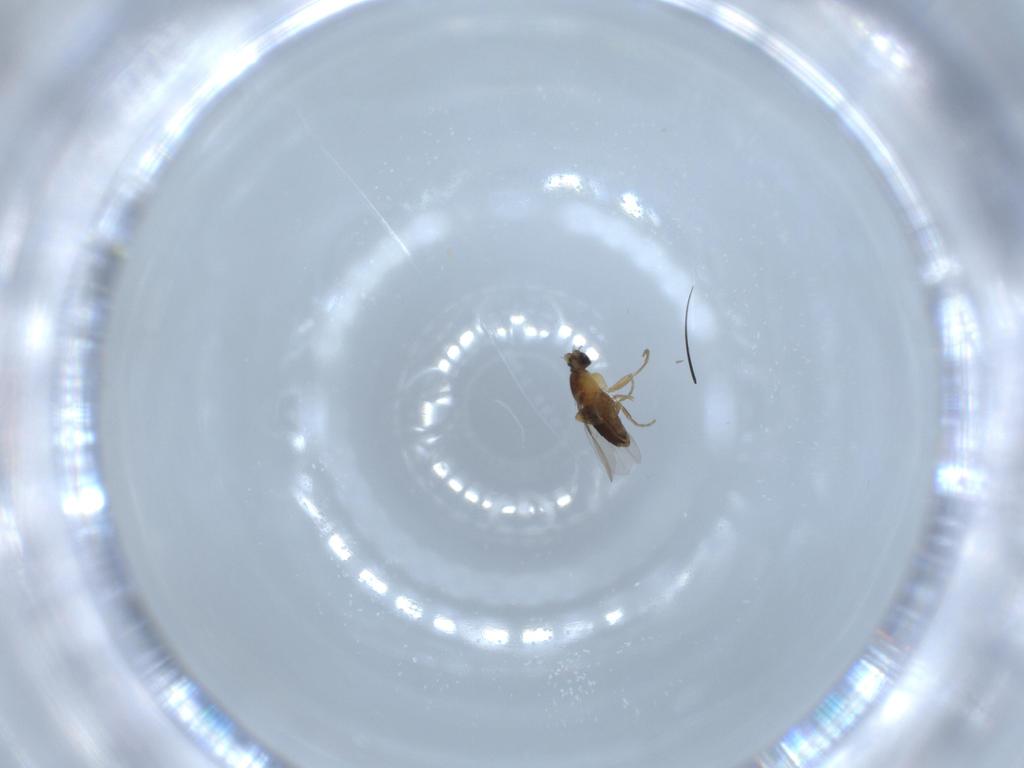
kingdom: Animalia
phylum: Arthropoda
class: Insecta
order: Diptera
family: Phoridae
